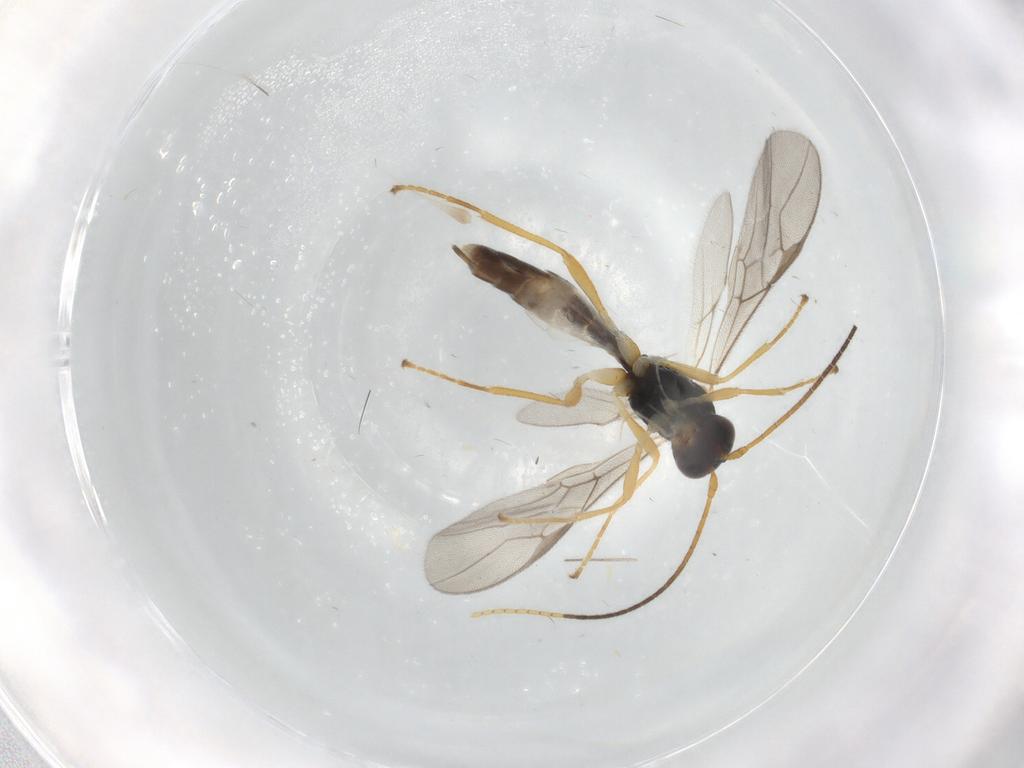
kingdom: Animalia
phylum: Arthropoda
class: Insecta
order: Hymenoptera
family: Braconidae
